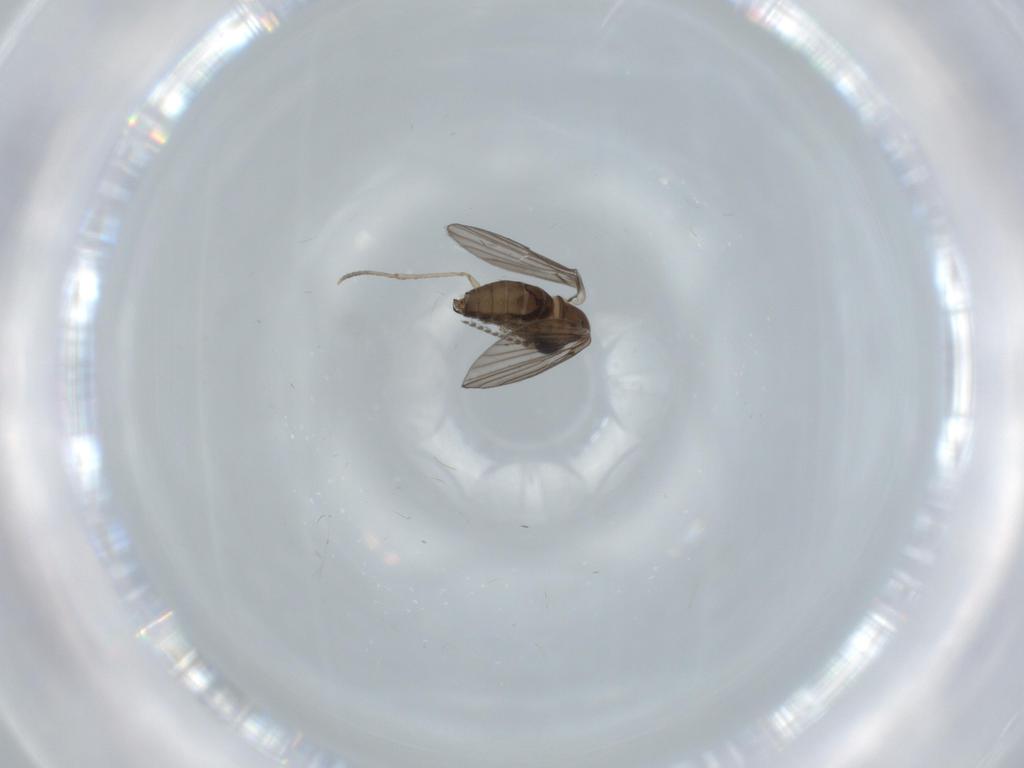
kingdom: Animalia
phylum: Arthropoda
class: Insecta
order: Diptera
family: Psychodidae
